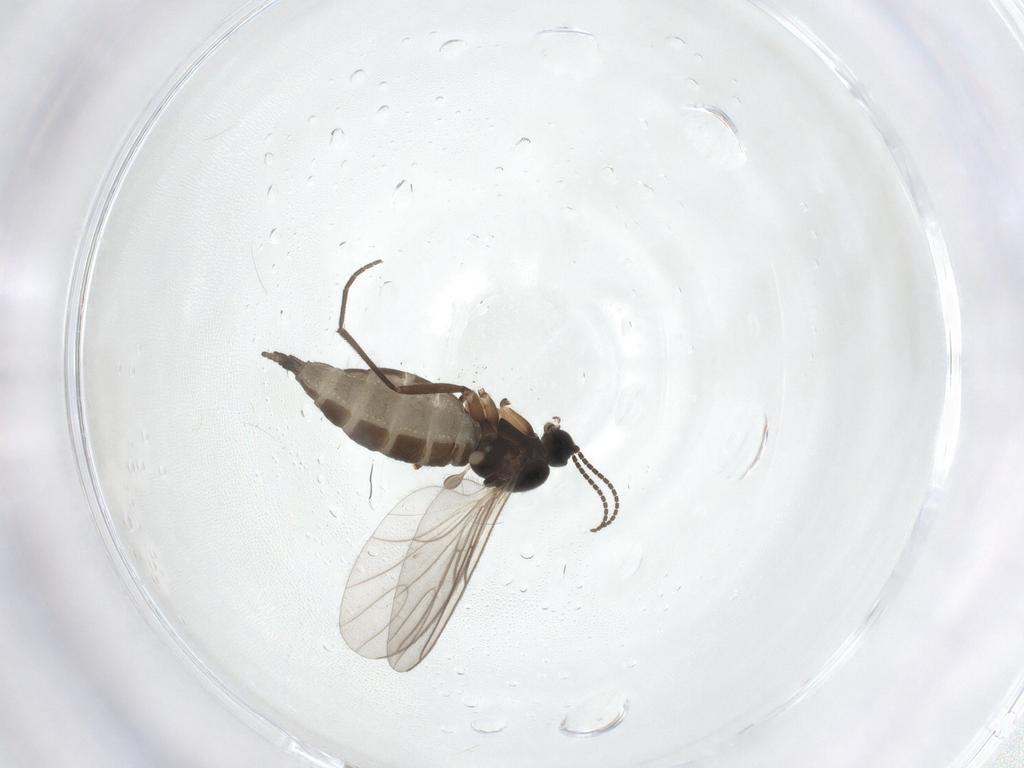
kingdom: Animalia
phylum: Arthropoda
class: Insecta
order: Diptera
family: Sciaridae
